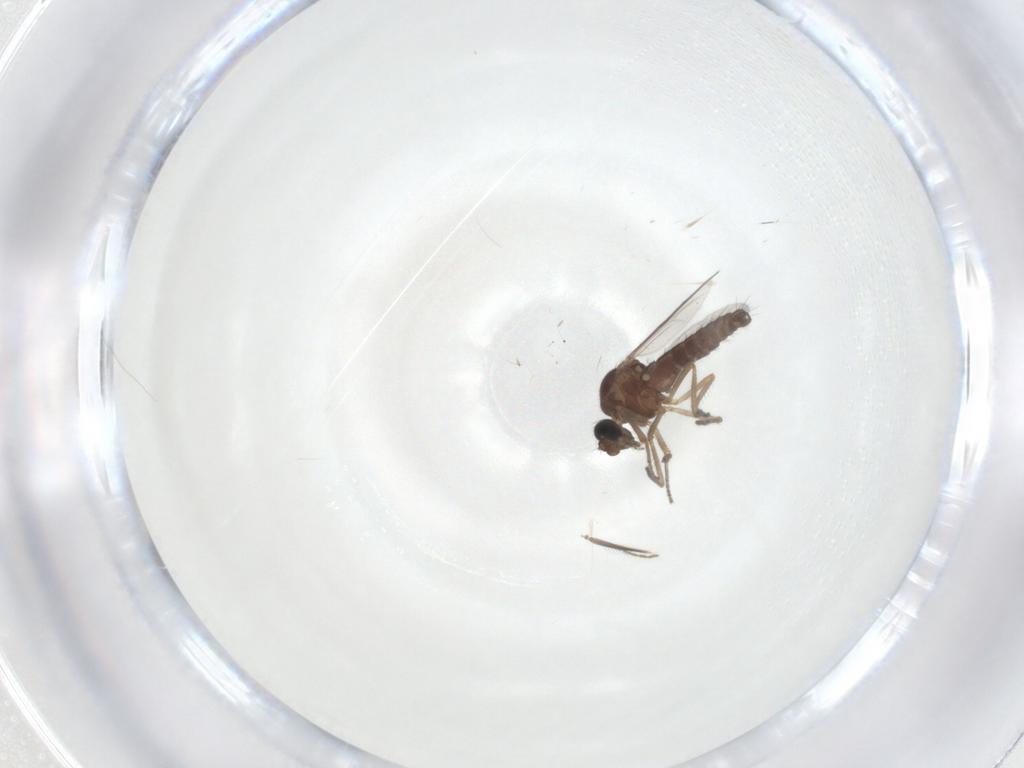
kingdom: Animalia
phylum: Arthropoda
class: Insecta
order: Diptera
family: Ceratopogonidae
